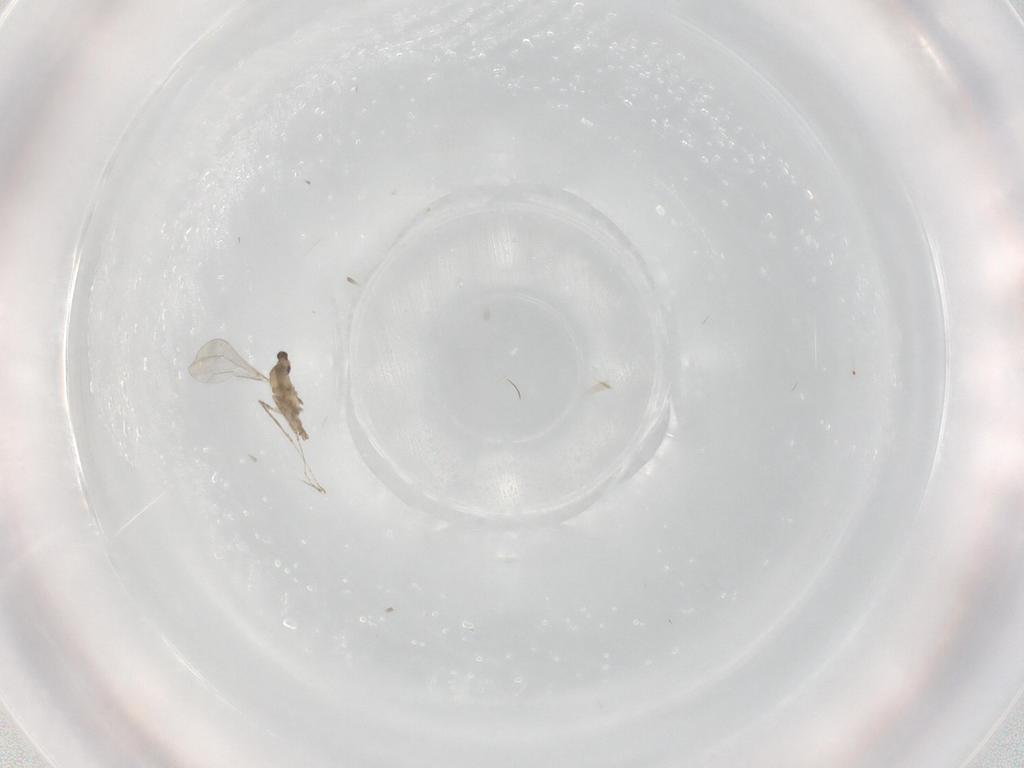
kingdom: Animalia
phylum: Arthropoda
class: Insecta
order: Diptera
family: Cecidomyiidae
